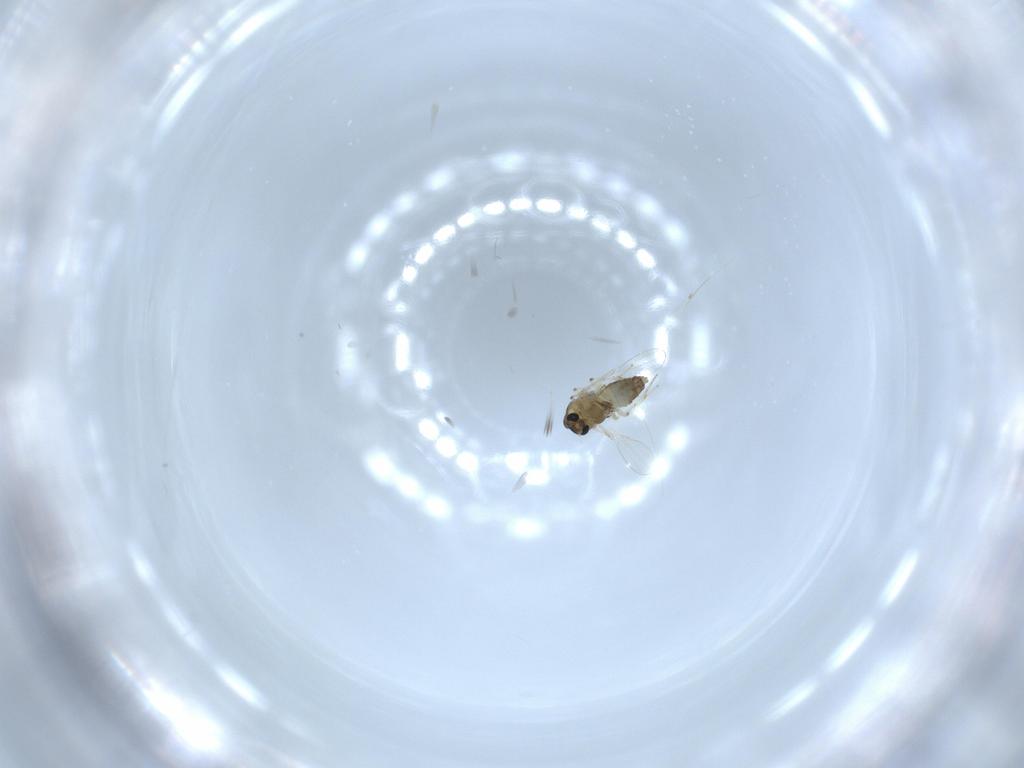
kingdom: Animalia
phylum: Arthropoda
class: Insecta
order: Diptera
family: Chironomidae
